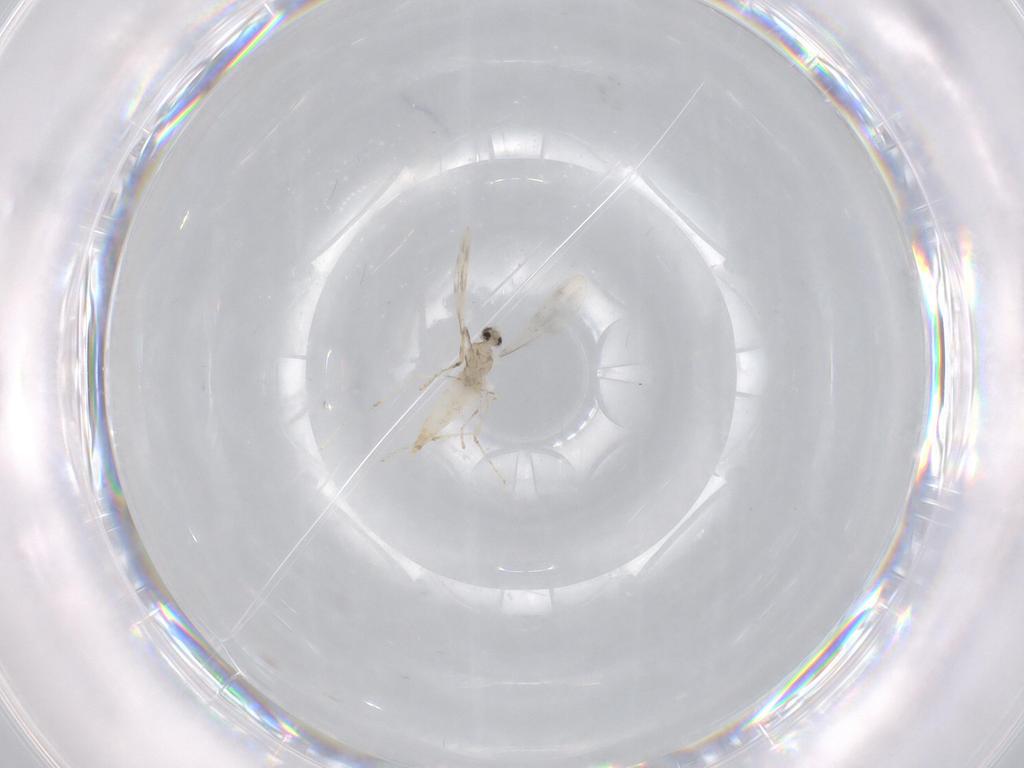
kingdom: Animalia
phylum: Arthropoda
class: Insecta
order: Diptera
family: Cecidomyiidae
